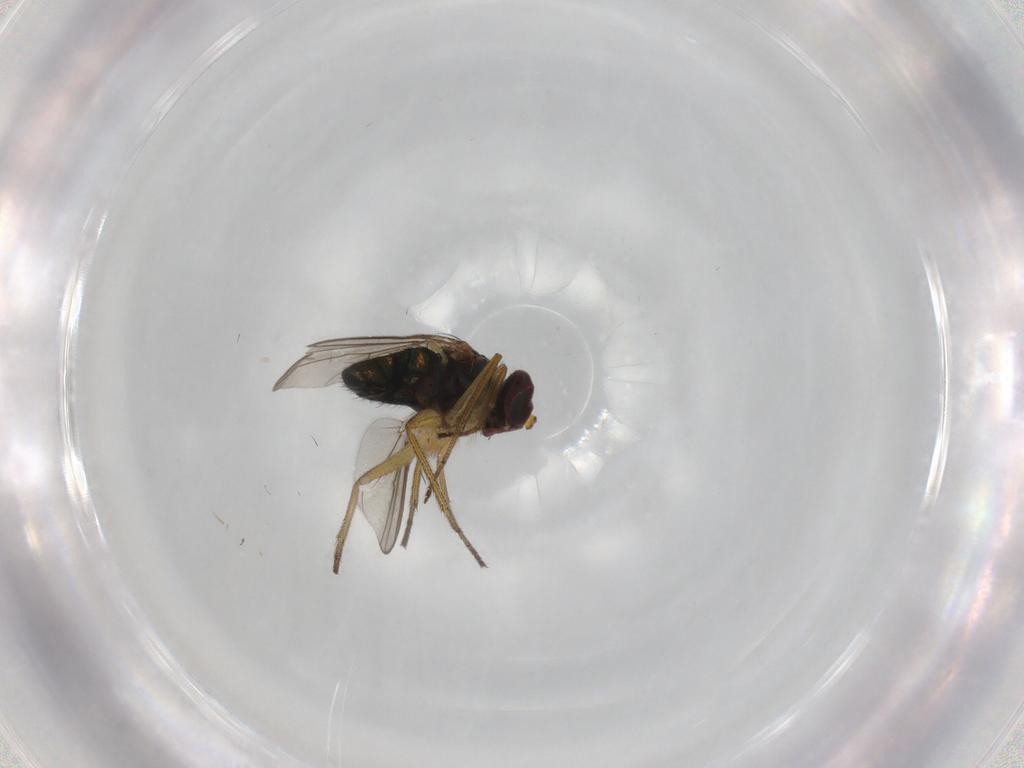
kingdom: Animalia
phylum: Arthropoda
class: Insecta
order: Diptera
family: Dolichopodidae
